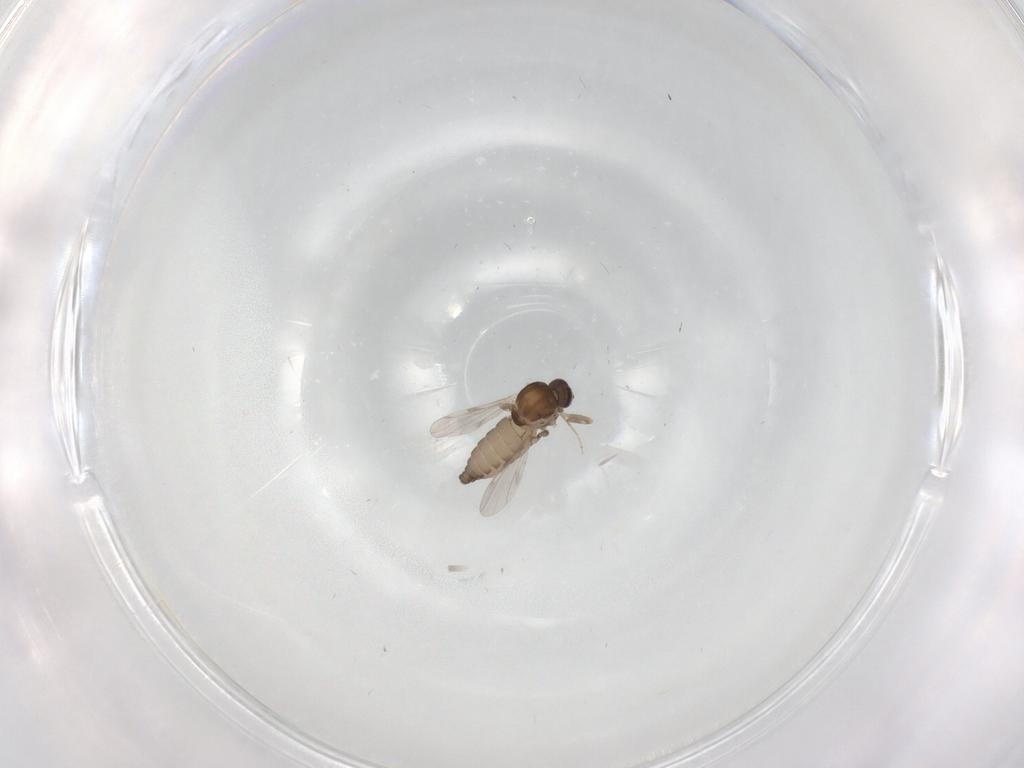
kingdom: Animalia
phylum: Arthropoda
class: Insecta
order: Diptera
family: Ceratopogonidae
